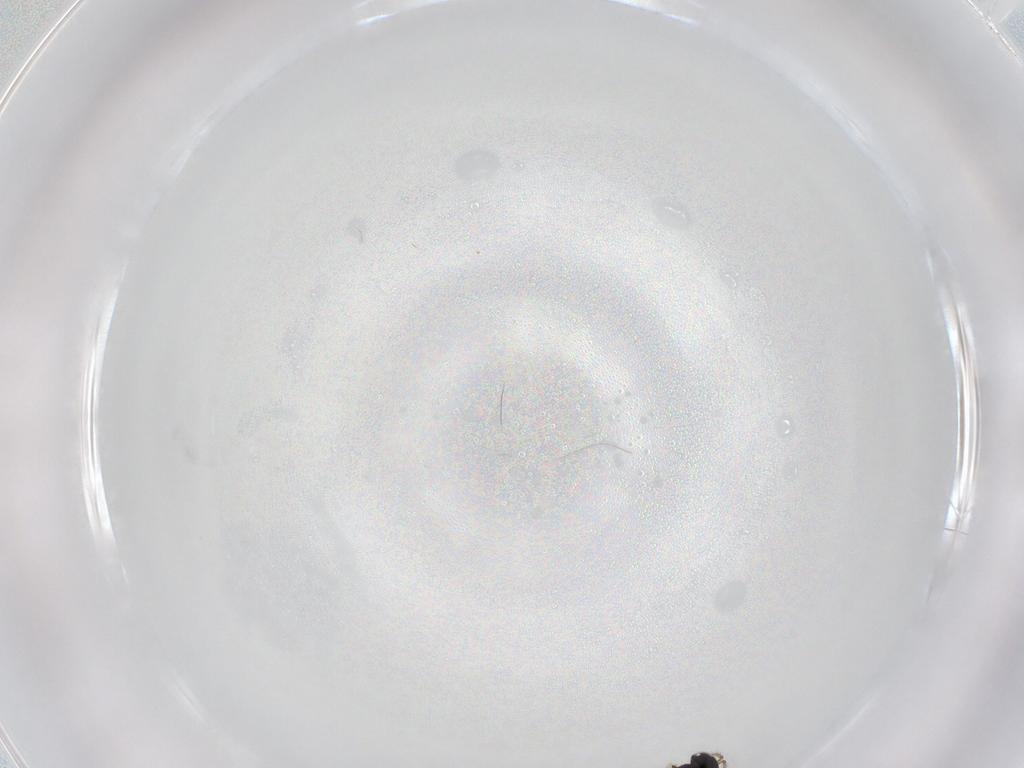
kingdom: Animalia
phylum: Arthropoda
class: Insecta
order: Hymenoptera
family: Encyrtidae
